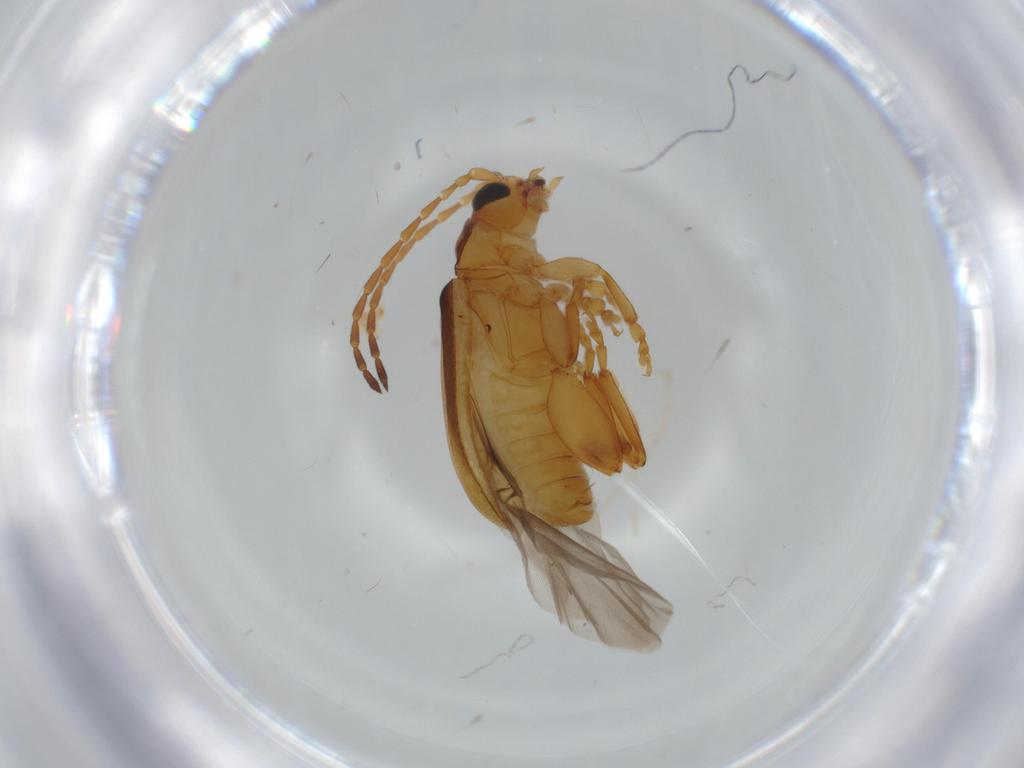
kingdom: Animalia
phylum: Arthropoda
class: Insecta
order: Coleoptera
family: Chrysomelidae
